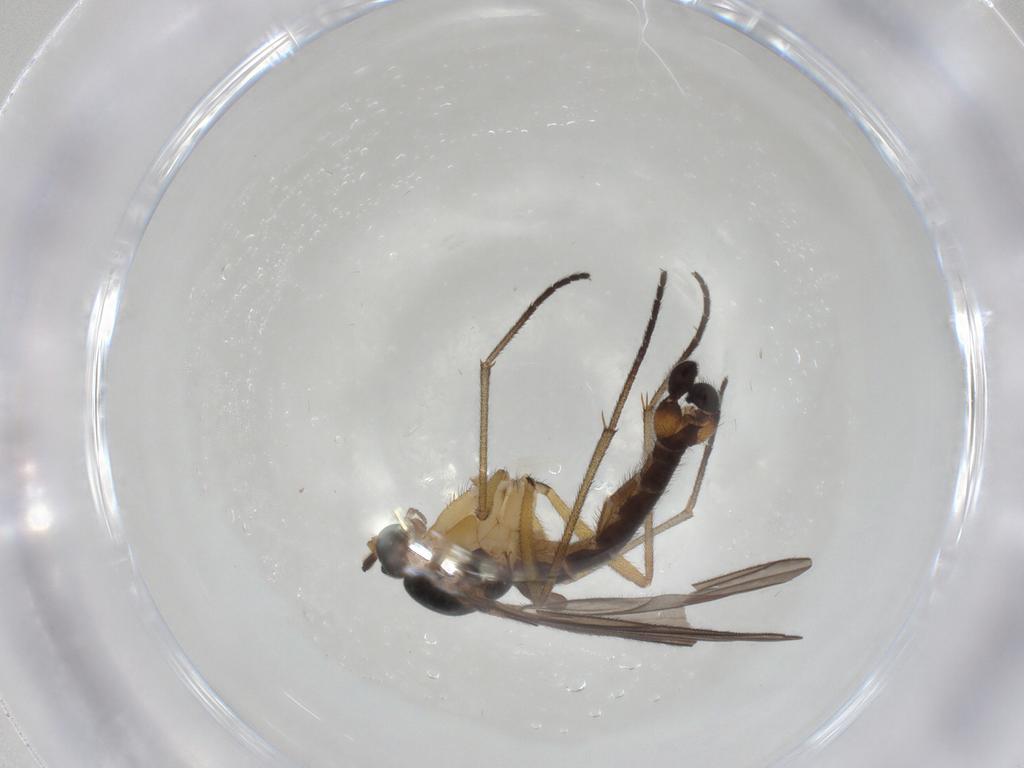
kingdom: Animalia
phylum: Arthropoda
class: Insecta
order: Diptera
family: Sciaridae
